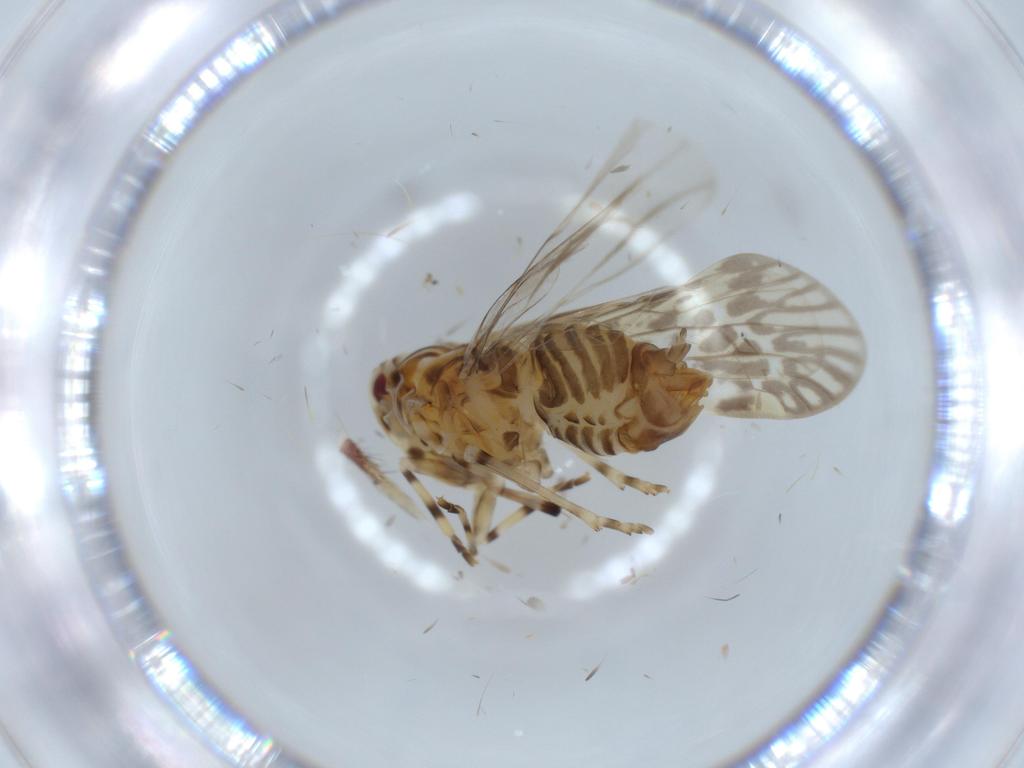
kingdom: Animalia
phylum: Arthropoda
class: Insecta
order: Hemiptera
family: Derbidae
